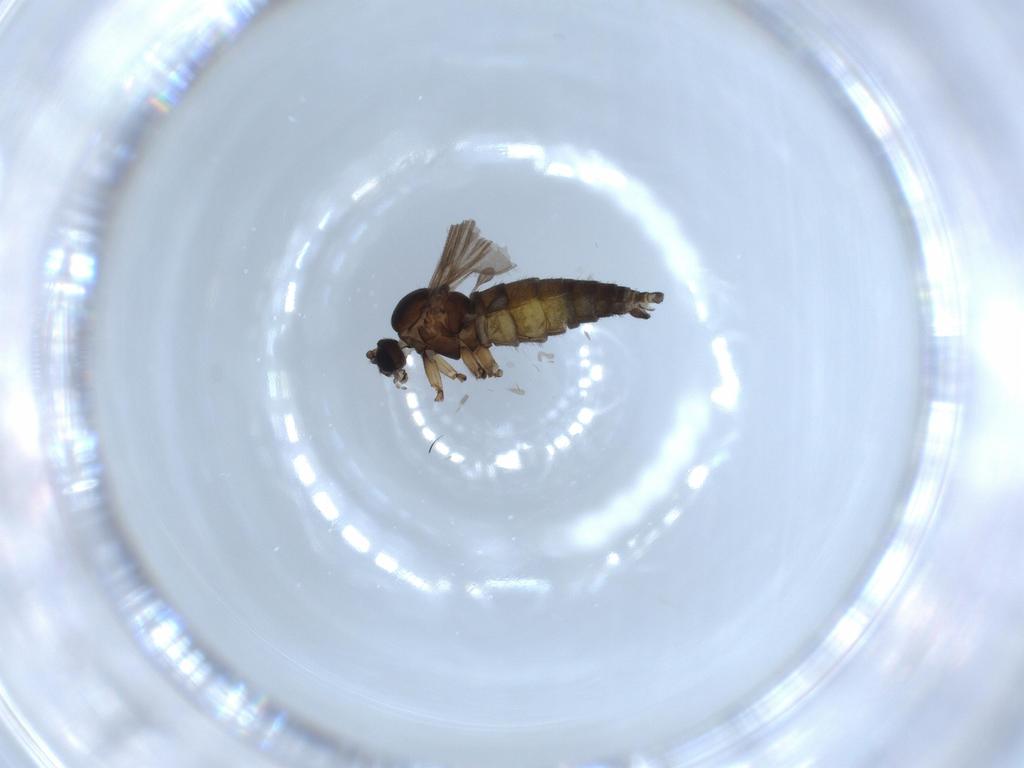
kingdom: Animalia
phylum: Arthropoda
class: Insecta
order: Diptera
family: Sciaridae
